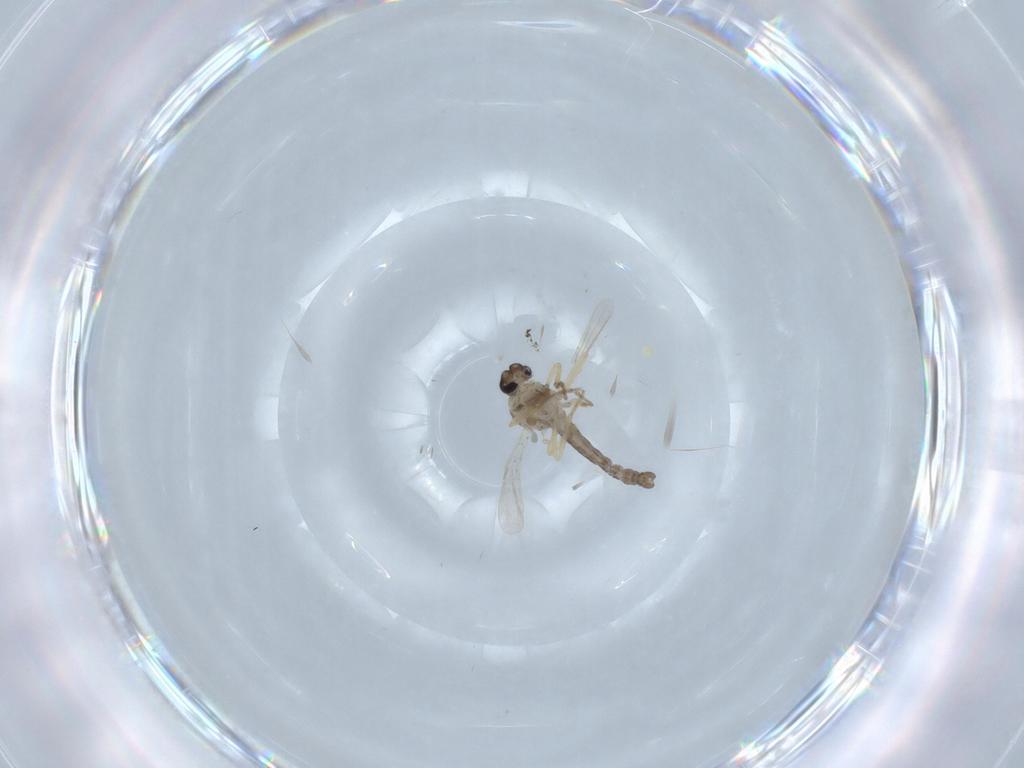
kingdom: Animalia
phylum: Arthropoda
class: Insecta
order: Diptera
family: Ceratopogonidae
